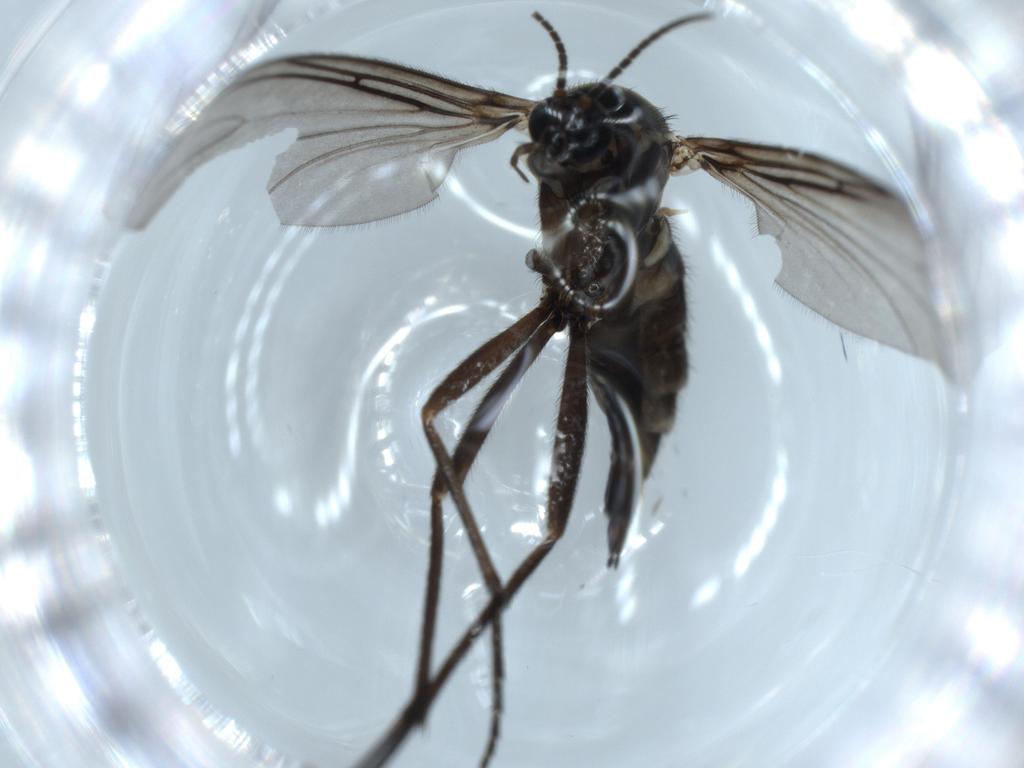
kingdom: Animalia
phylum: Arthropoda
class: Insecta
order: Diptera
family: Sciaridae
